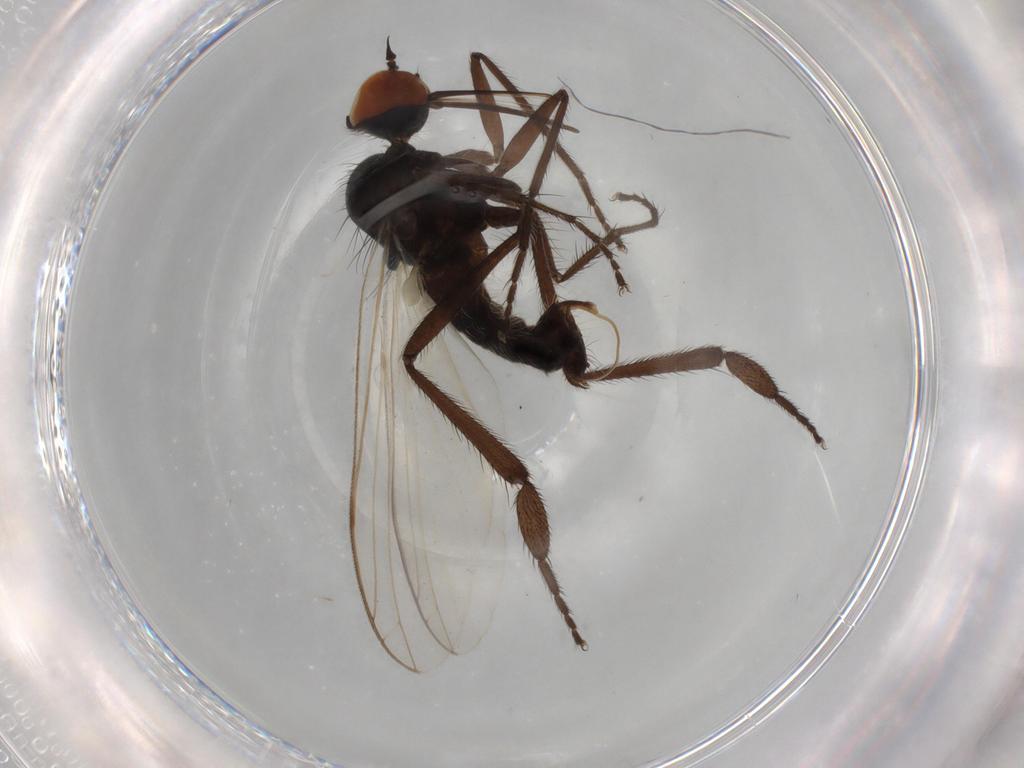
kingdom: Animalia
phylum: Arthropoda
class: Insecta
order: Diptera
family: Empididae
